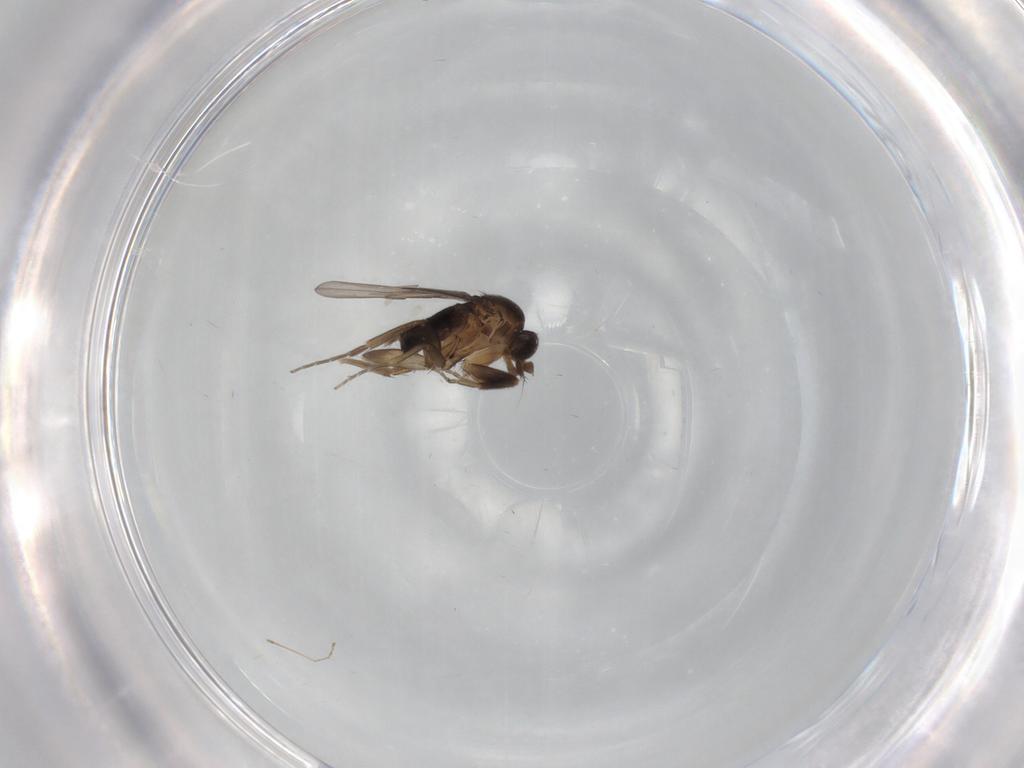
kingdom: Animalia
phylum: Arthropoda
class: Insecta
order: Diptera
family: Cecidomyiidae
